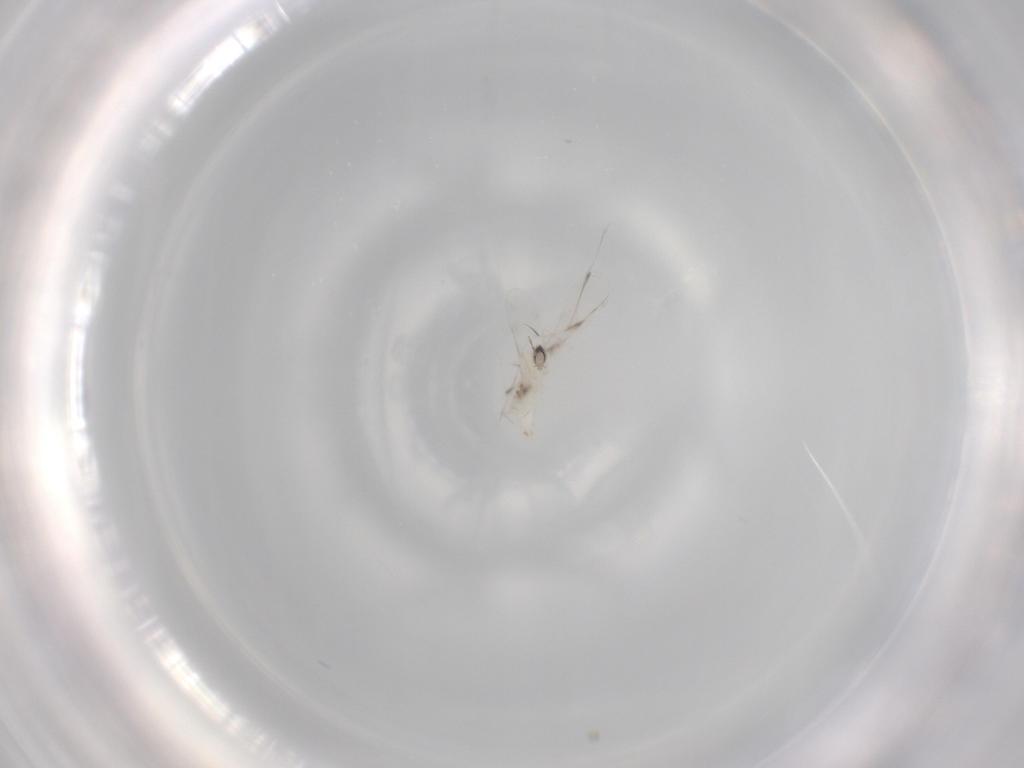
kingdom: Animalia
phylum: Arthropoda
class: Insecta
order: Diptera
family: Cecidomyiidae
